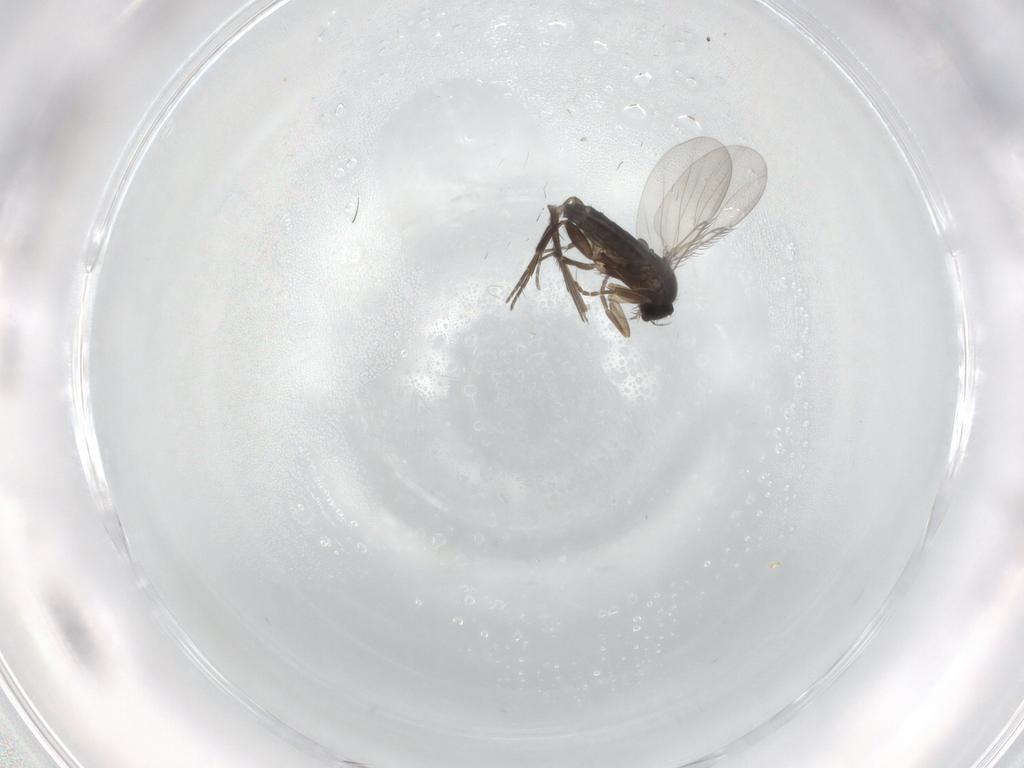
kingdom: Animalia
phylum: Arthropoda
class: Insecta
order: Diptera
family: Phoridae
